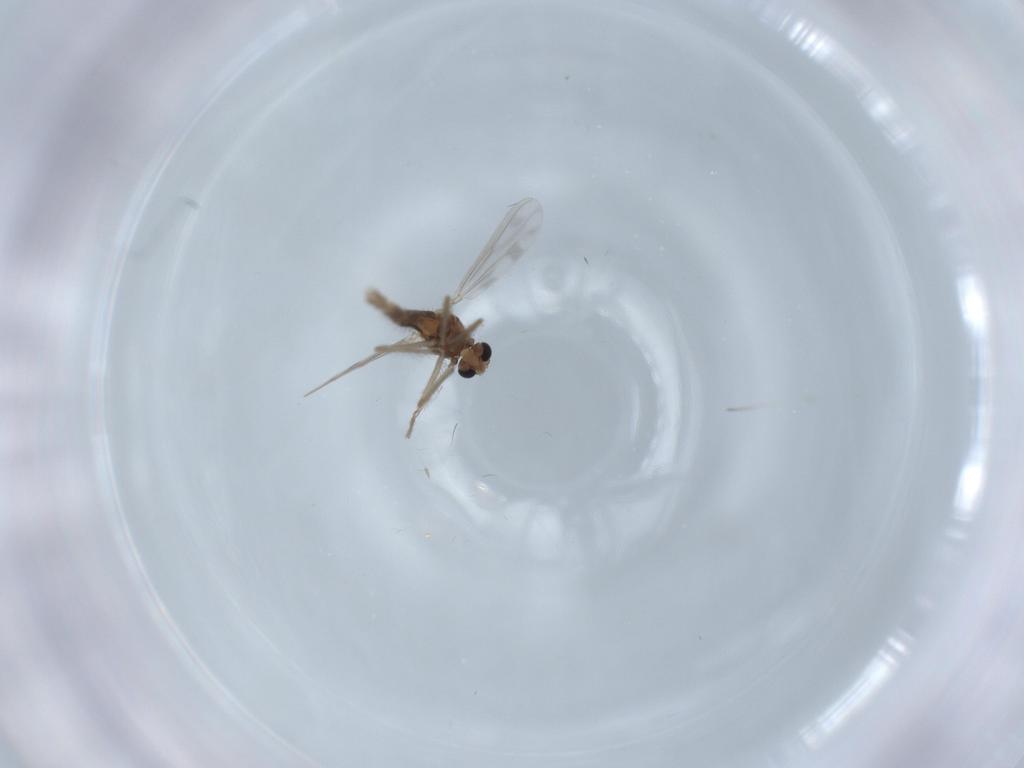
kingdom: Animalia
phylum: Arthropoda
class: Insecta
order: Diptera
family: Chironomidae
